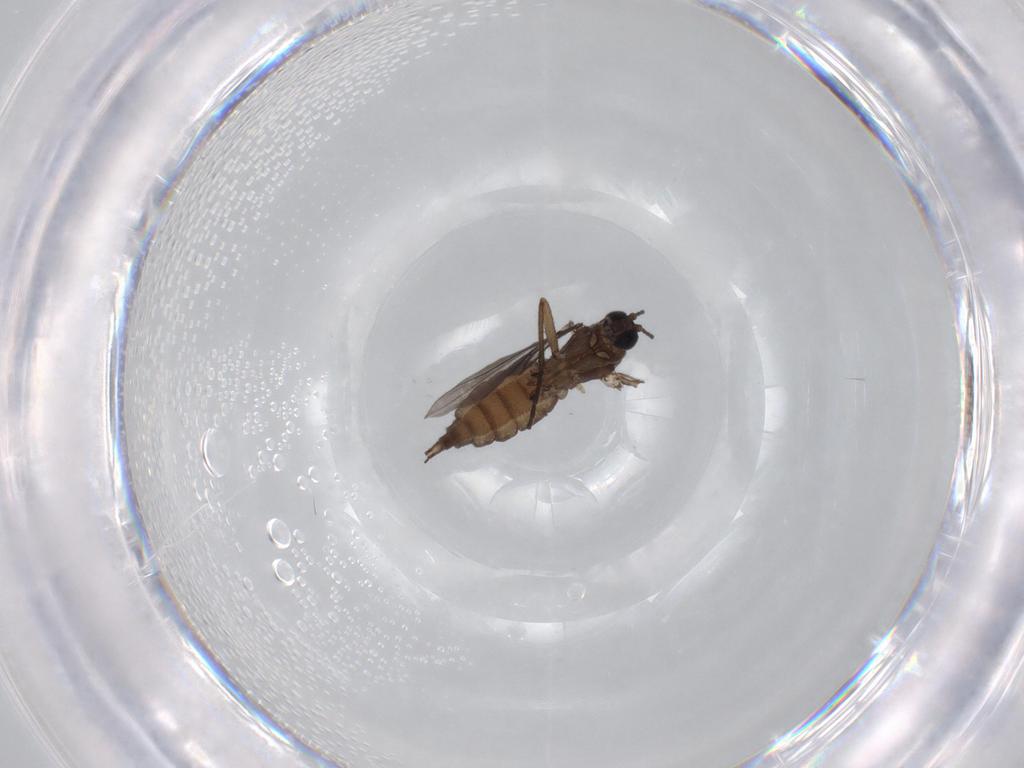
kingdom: Animalia
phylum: Arthropoda
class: Insecta
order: Diptera
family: Sciaridae
